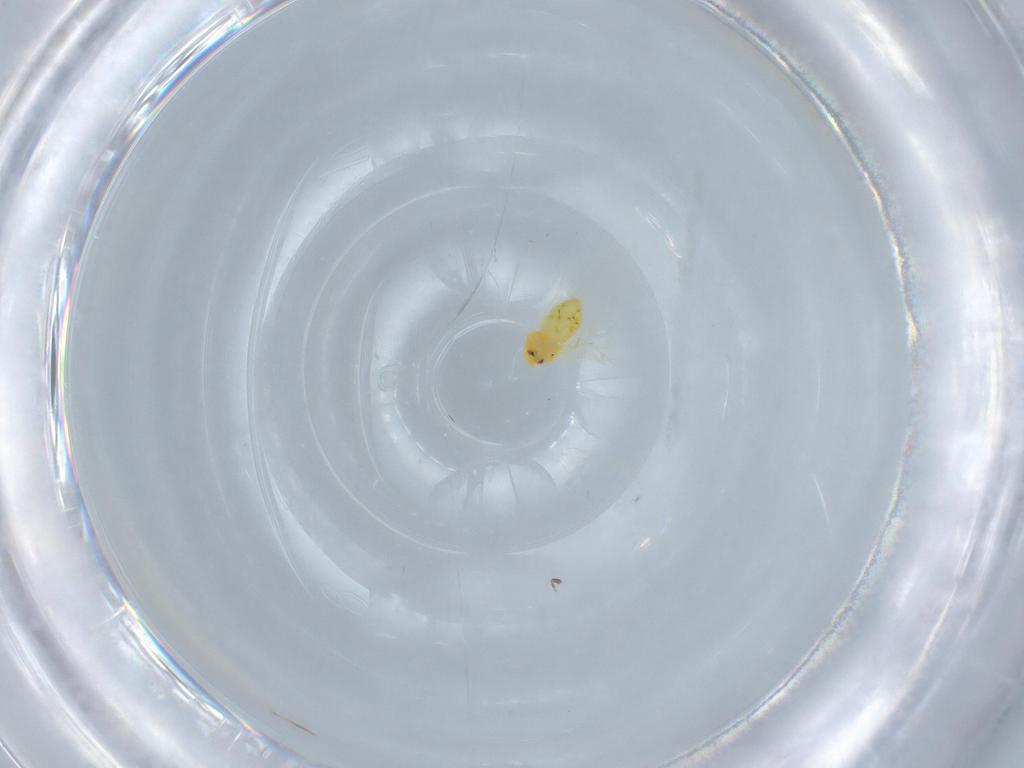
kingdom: Animalia
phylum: Arthropoda
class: Insecta
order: Hemiptera
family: Aleyrodidae
